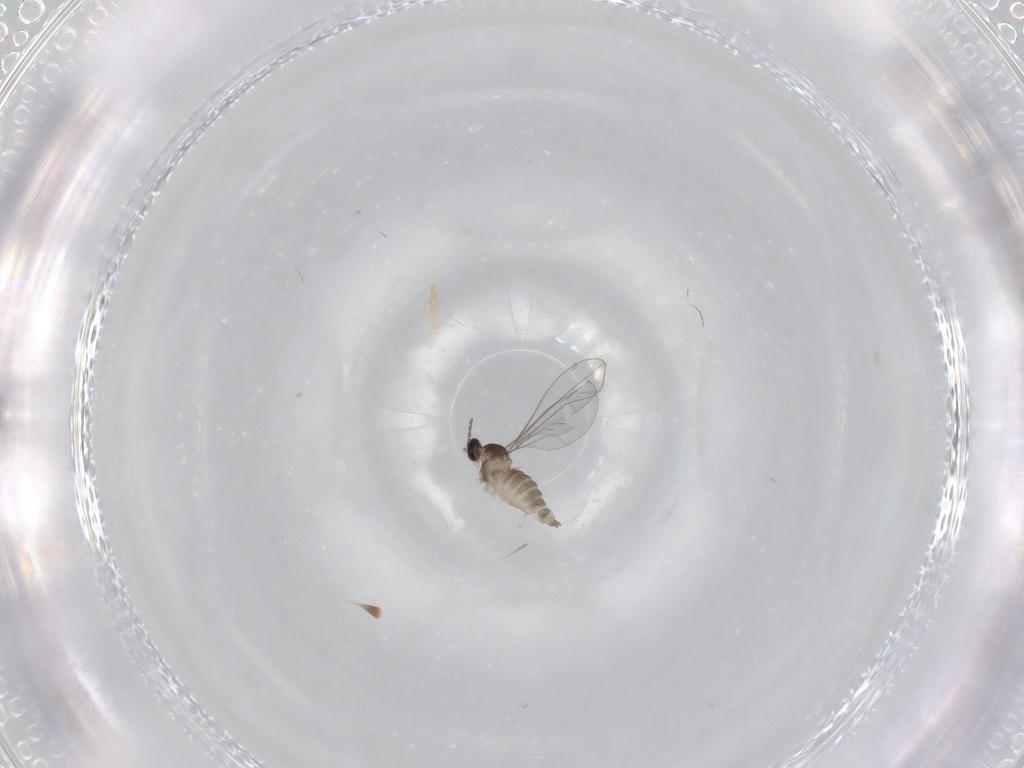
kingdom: Animalia
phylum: Arthropoda
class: Insecta
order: Diptera
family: Cecidomyiidae
